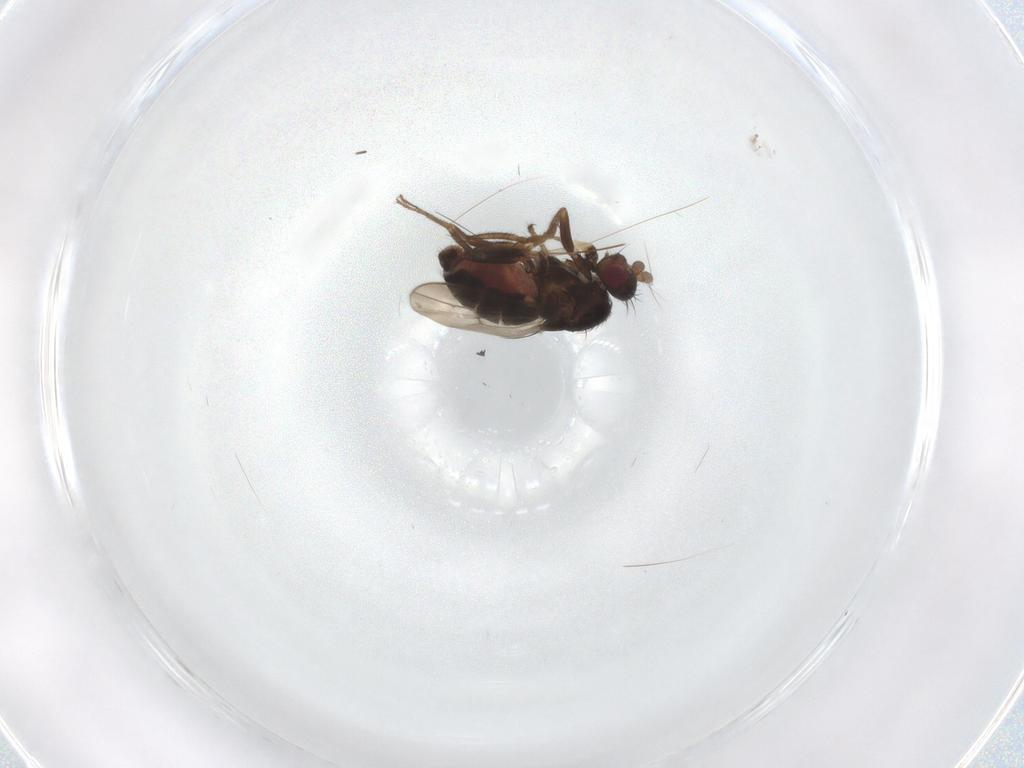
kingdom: Animalia
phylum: Arthropoda
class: Insecta
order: Diptera
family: Sphaeroceridae
